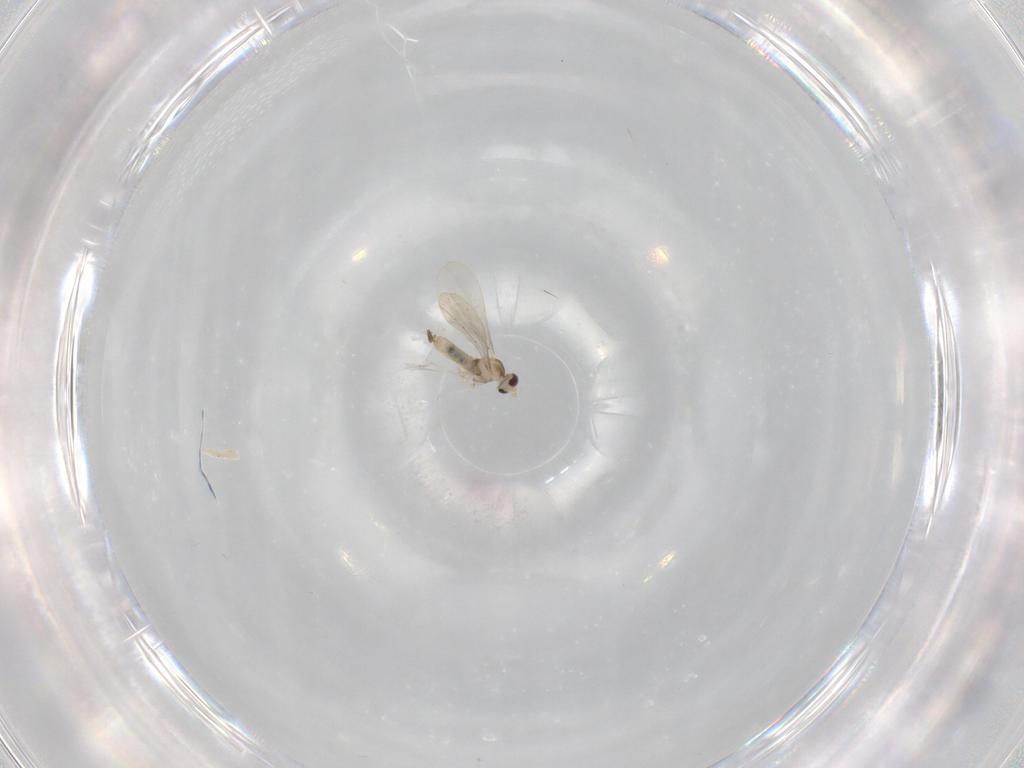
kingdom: Animalia
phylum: Arthropoda
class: Insecta
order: Diptera
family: Cecidomyiidae
